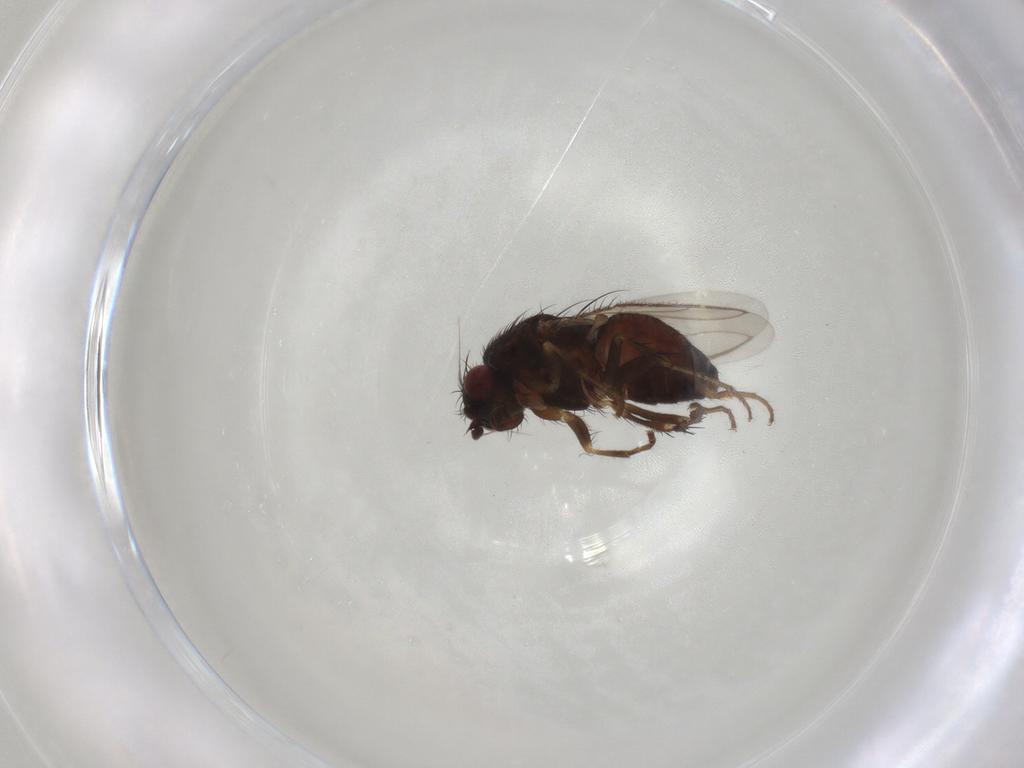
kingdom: Animalia
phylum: Arthropoda
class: Insecta
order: Diptera
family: Sphaeroceridae
